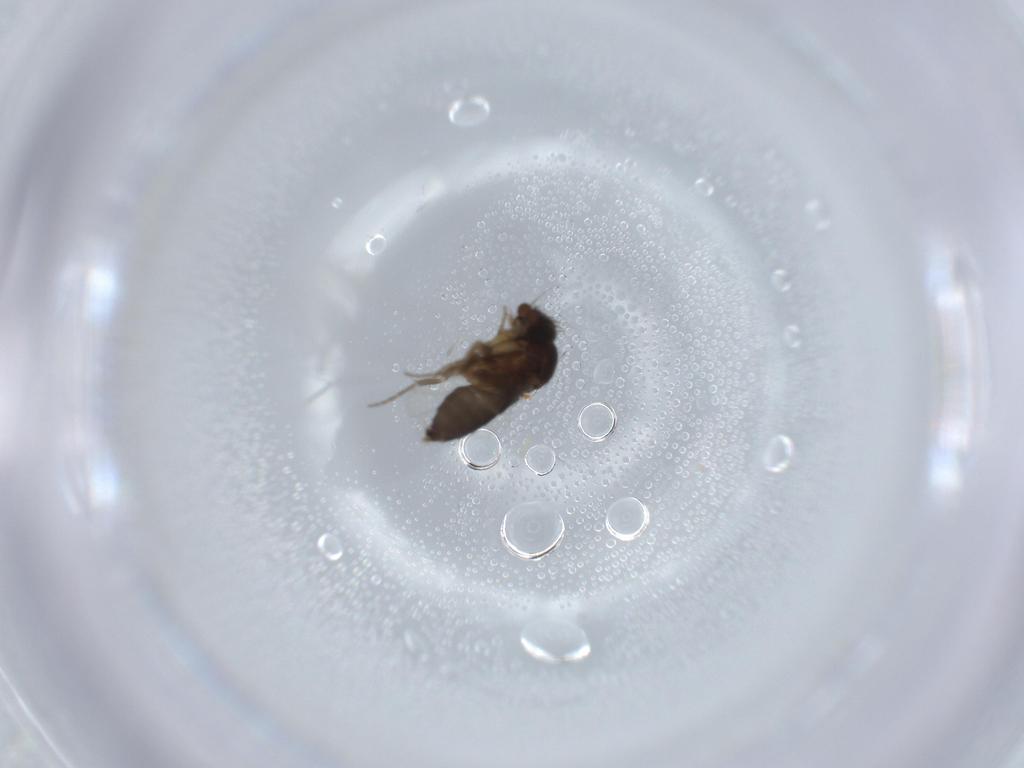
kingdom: Animalia
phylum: Arthropoda
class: Insecta
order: Diptera
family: Phoridae
